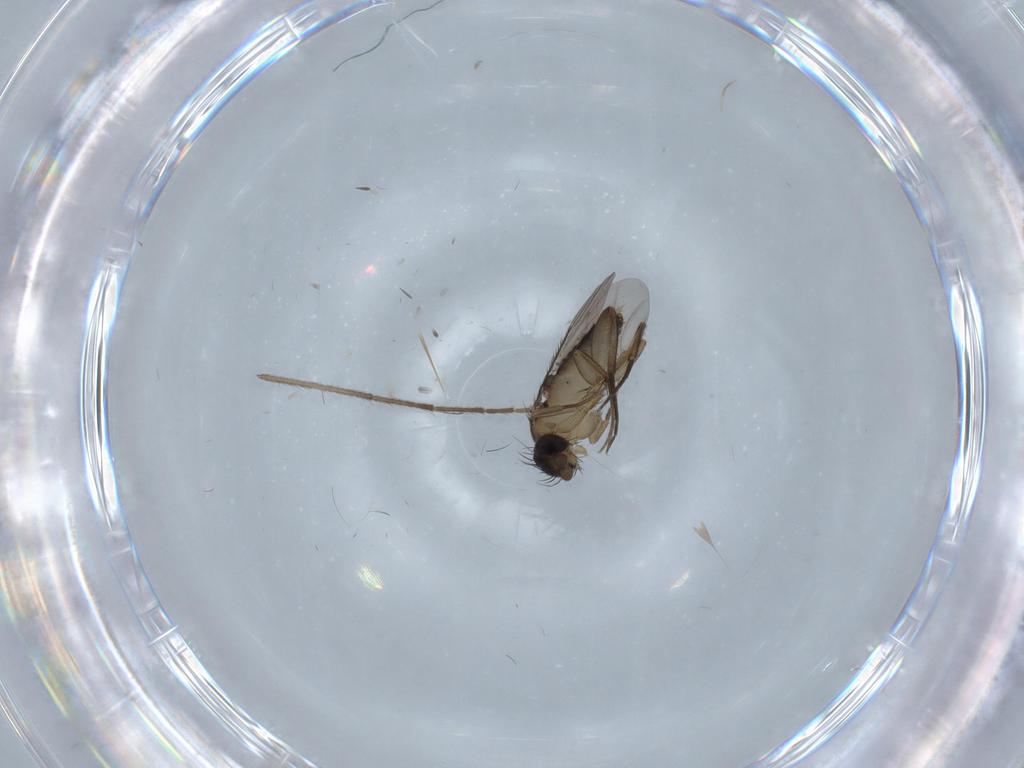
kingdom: Animalia
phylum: Arthropoda
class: Insecta
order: Diptera
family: Phoridae
